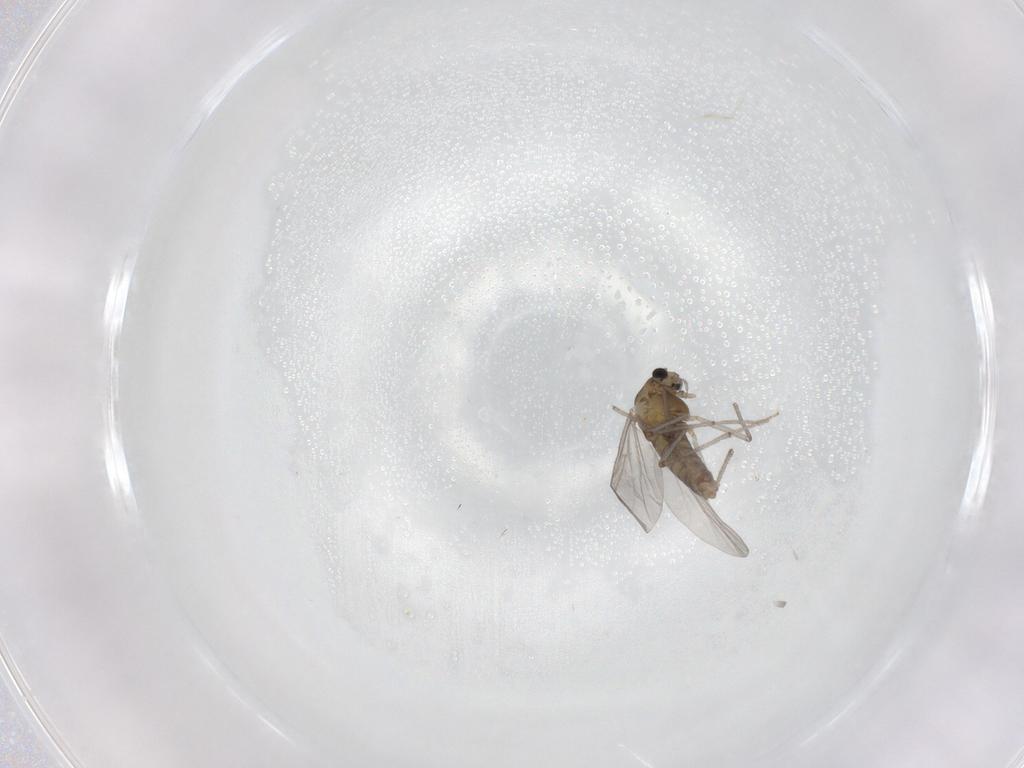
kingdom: Animalia
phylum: Arthropoda
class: Insecta
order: Diptera
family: Chironomidae
